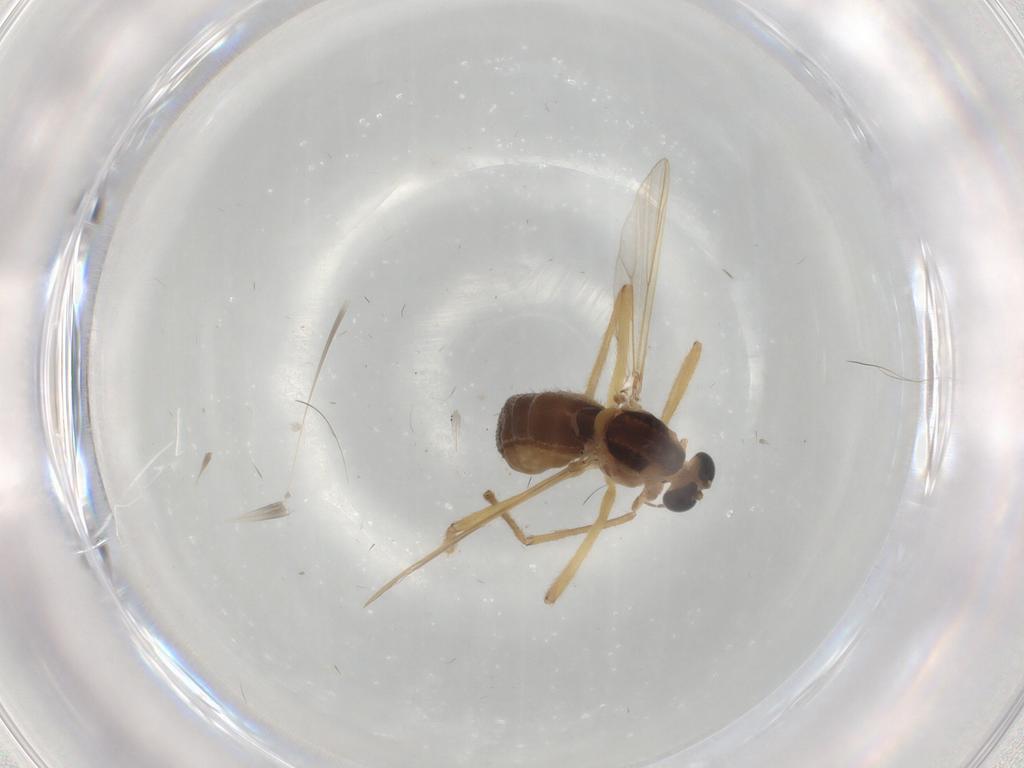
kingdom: Animalia
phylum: Arthropoda
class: Insecta
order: Diptera
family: Chironomidae
